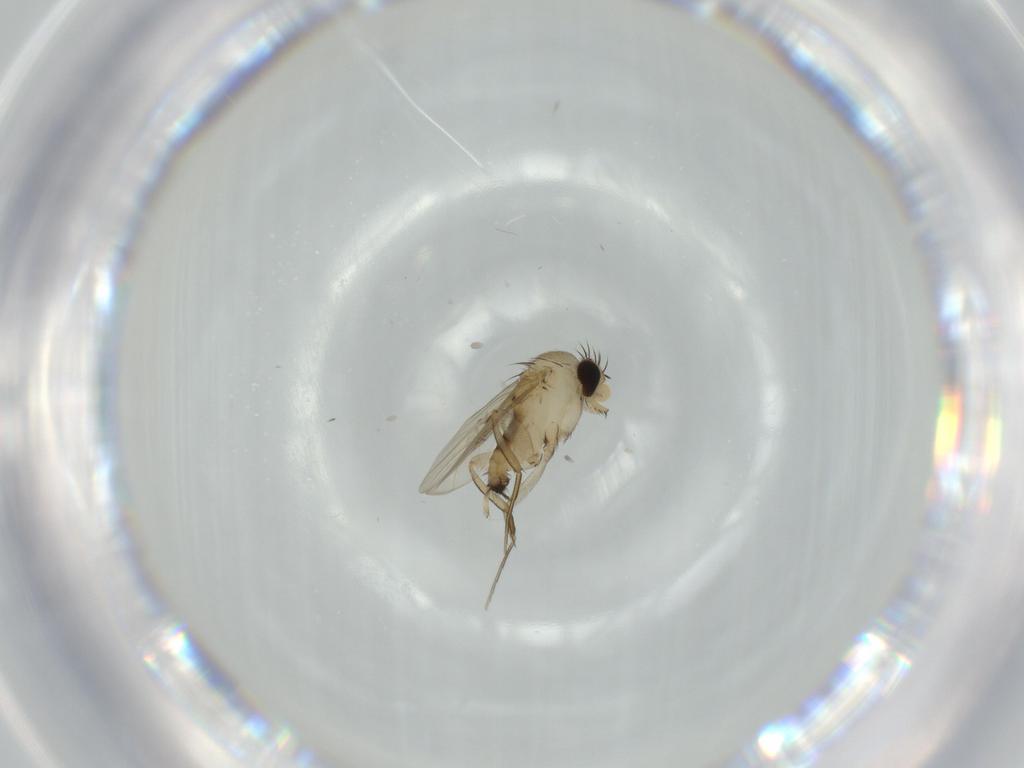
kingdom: Animalia
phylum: Arthropoda
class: Insecta
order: Diptera
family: Phoridae
